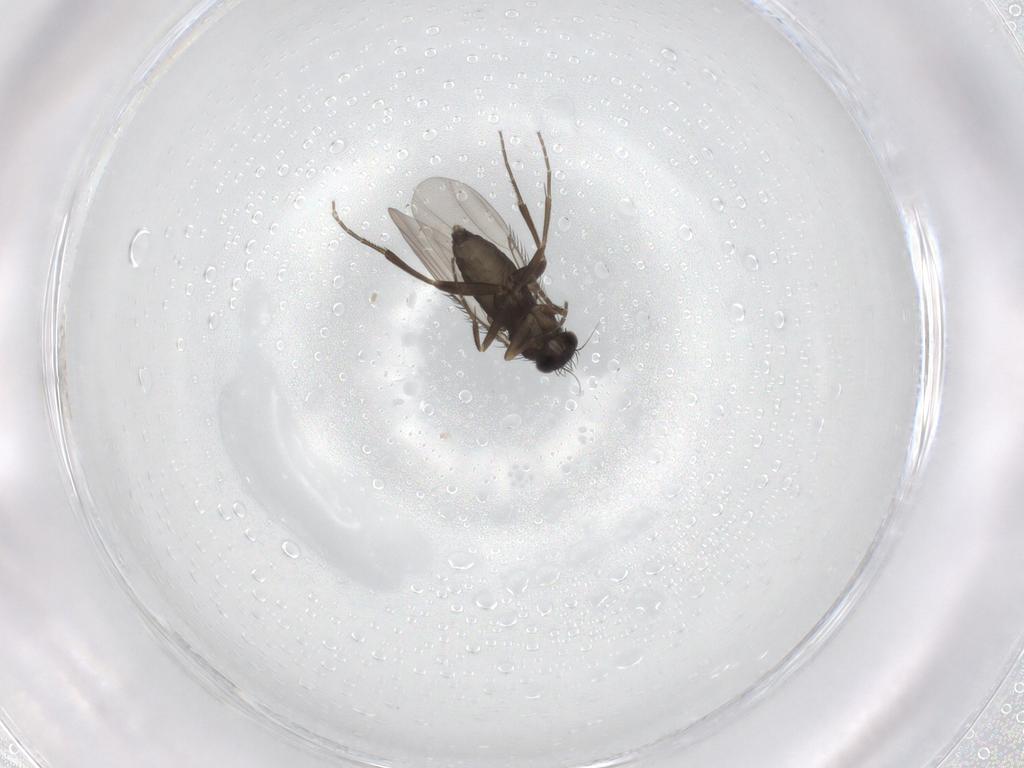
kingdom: Animalia
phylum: Arthropoda
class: Insecta
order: Diptera
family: Phoridae
